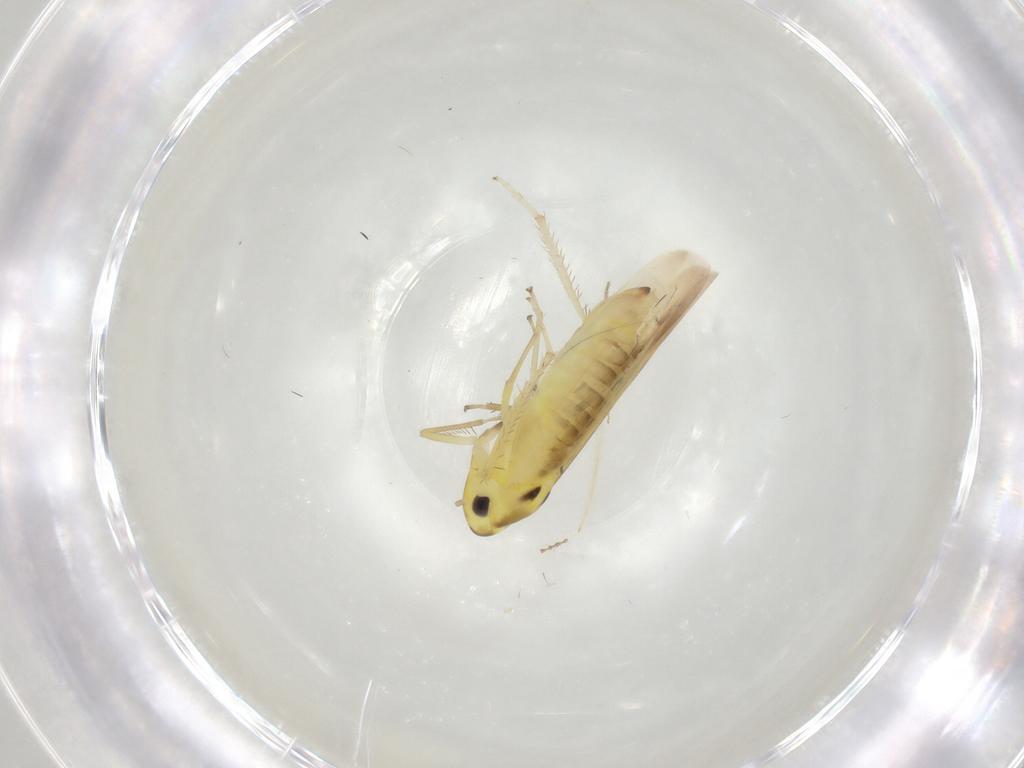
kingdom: Animalia
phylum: Arthropoda
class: Insecta
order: Hemiptera
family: Cicadellidae
